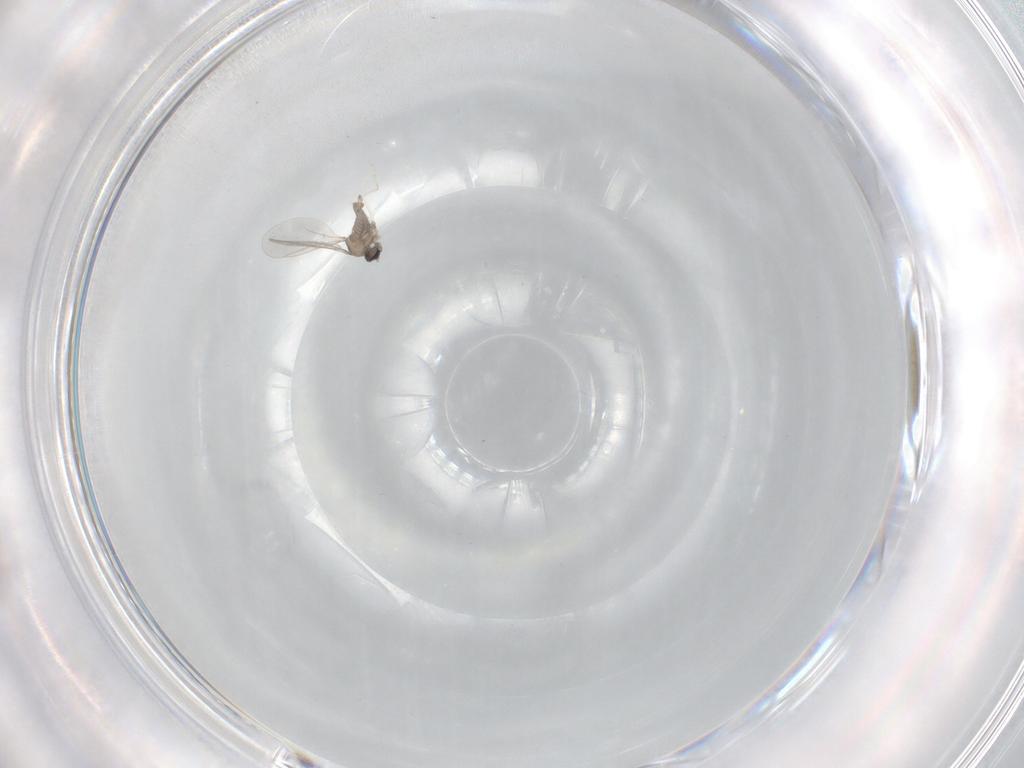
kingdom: Animalia
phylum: Arthropoda
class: Insecta
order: Diptera
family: Cecidomyiidae
